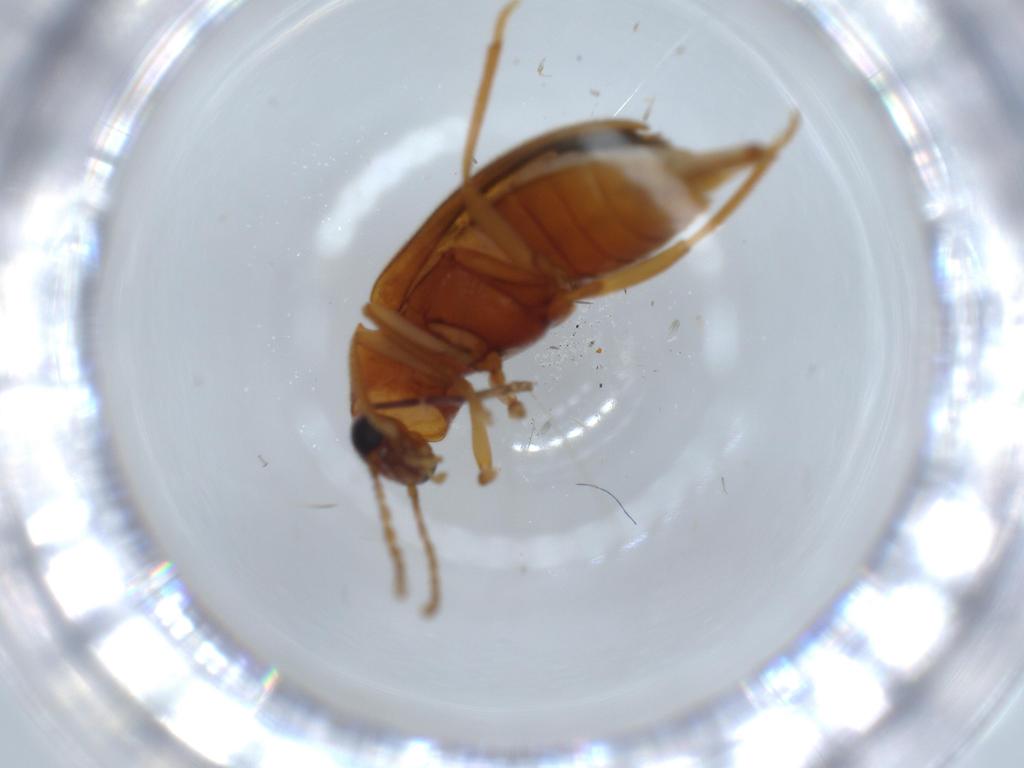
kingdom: Animalia
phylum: Arthropoda
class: Insecta
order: Coleoptera
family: Ptilodactylidae
